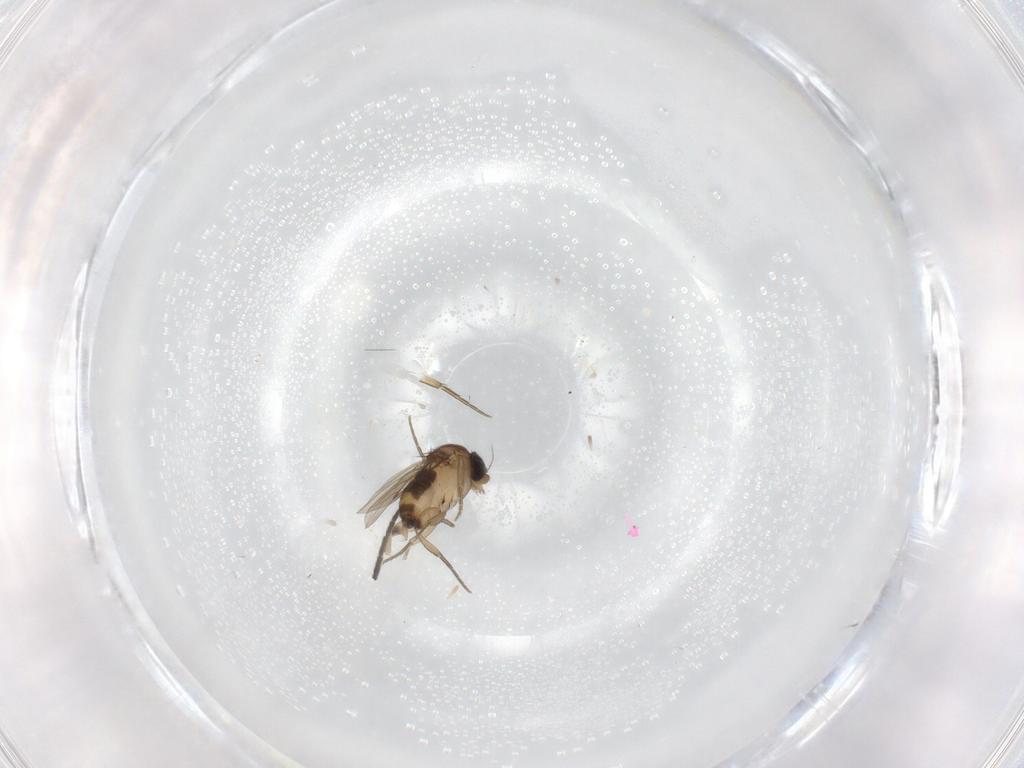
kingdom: Animalia
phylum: Arthropoda
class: Insecta
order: Diptera
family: Phoridae
